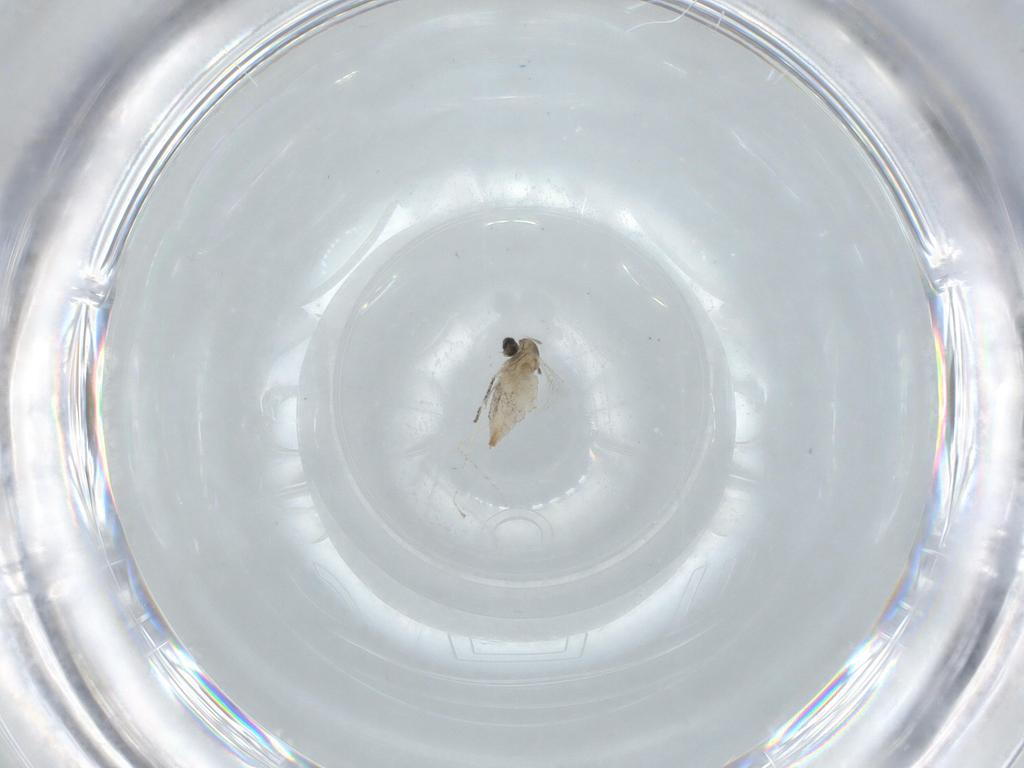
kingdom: Animalia
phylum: Arthropoda
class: Insecta
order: Diptera
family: Cecidomyiidae
